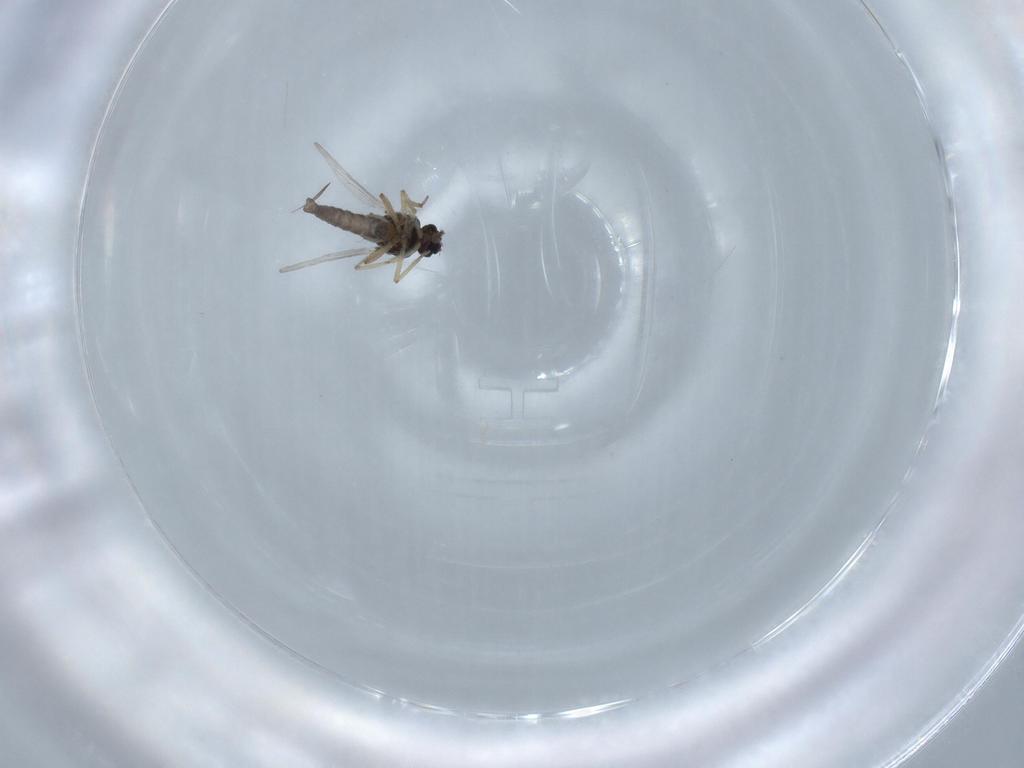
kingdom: Animalia
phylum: Arthropoda
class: Insecta
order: Diptera
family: Ceratopogonidae
